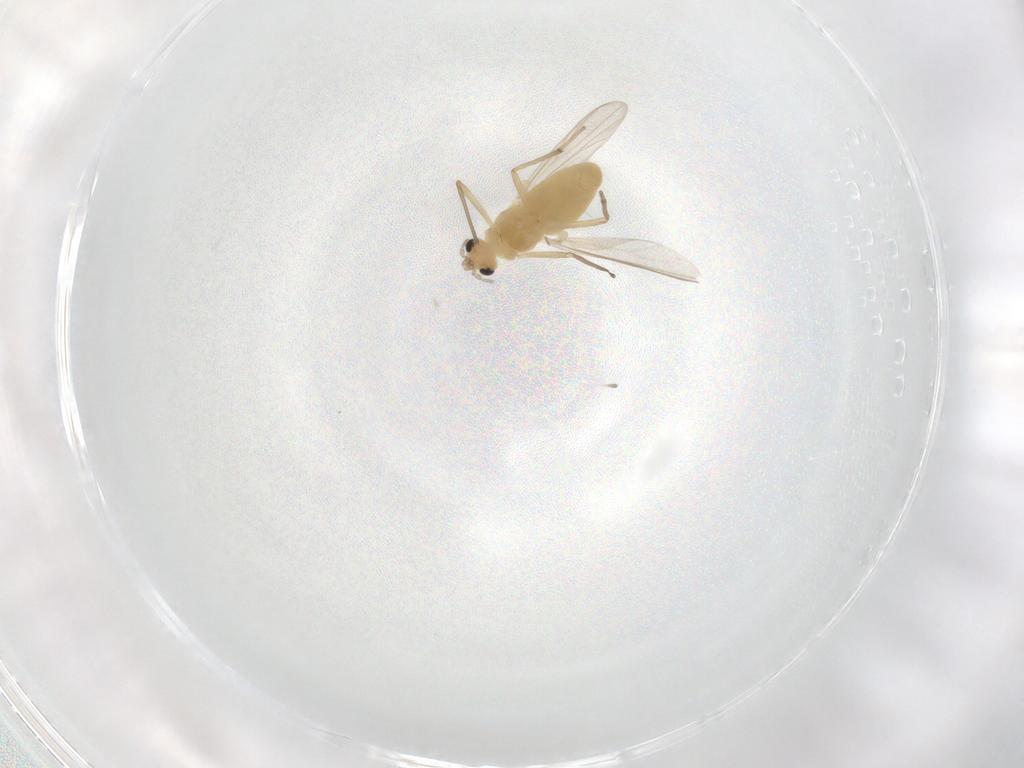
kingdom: Animalia
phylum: Arthropoda
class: Insecta
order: Diptera
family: Chironomidae
